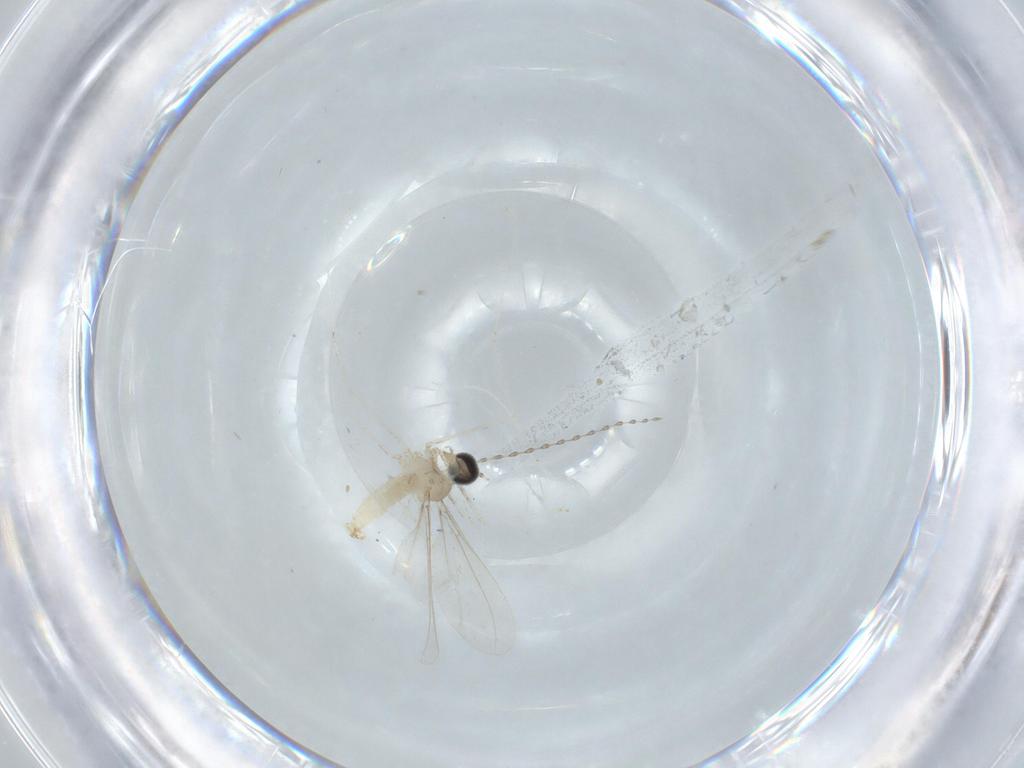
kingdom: Animalia
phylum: Arthropoda
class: Insecta
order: Diptera
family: Cecidomyiidae
